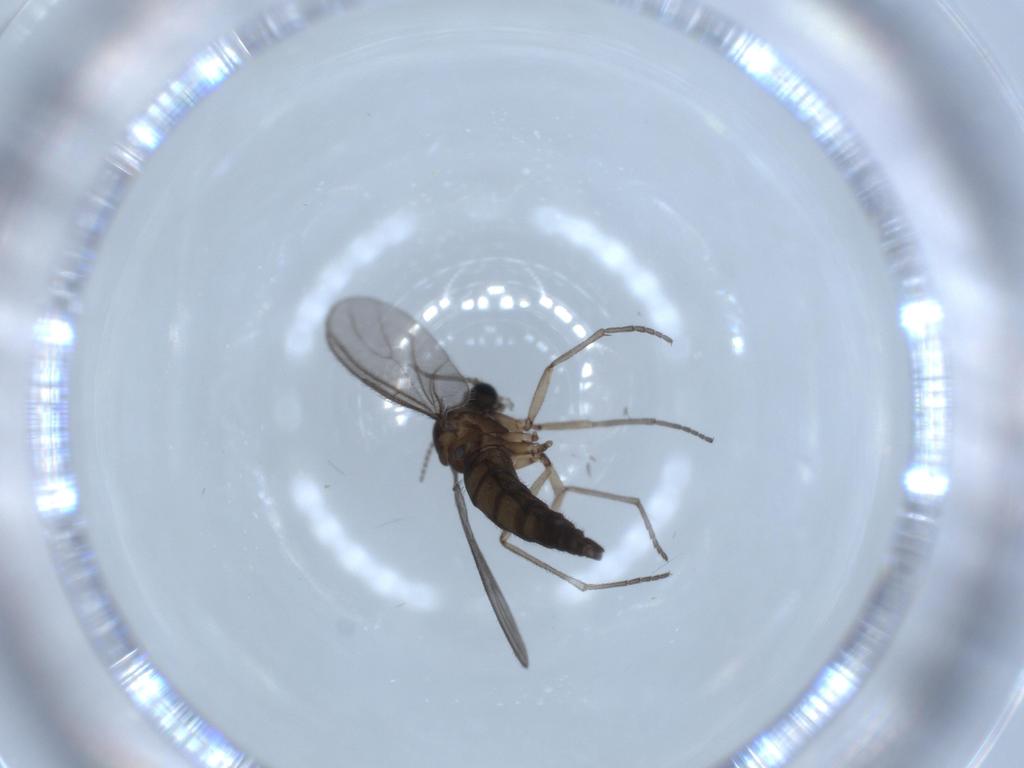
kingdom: Animalia
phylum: Arthropoda
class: Insecta
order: Diptera
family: Sciaridae
